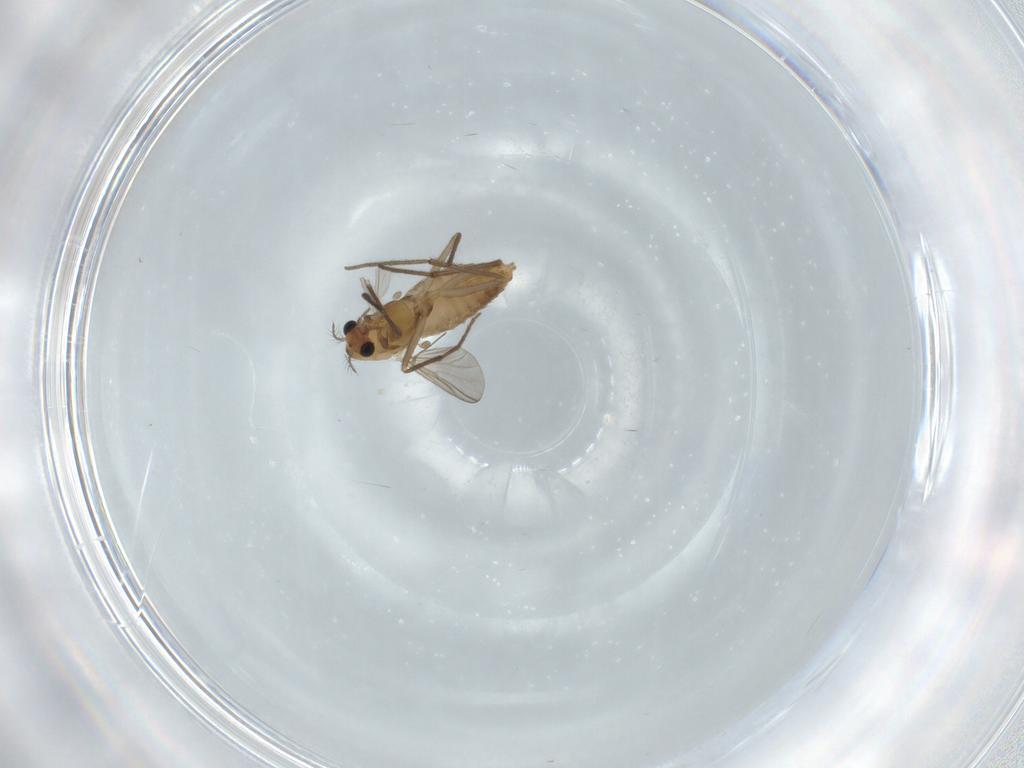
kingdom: Animalia
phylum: Arthropoda
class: Insecta
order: Diptera
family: Chironomidae
